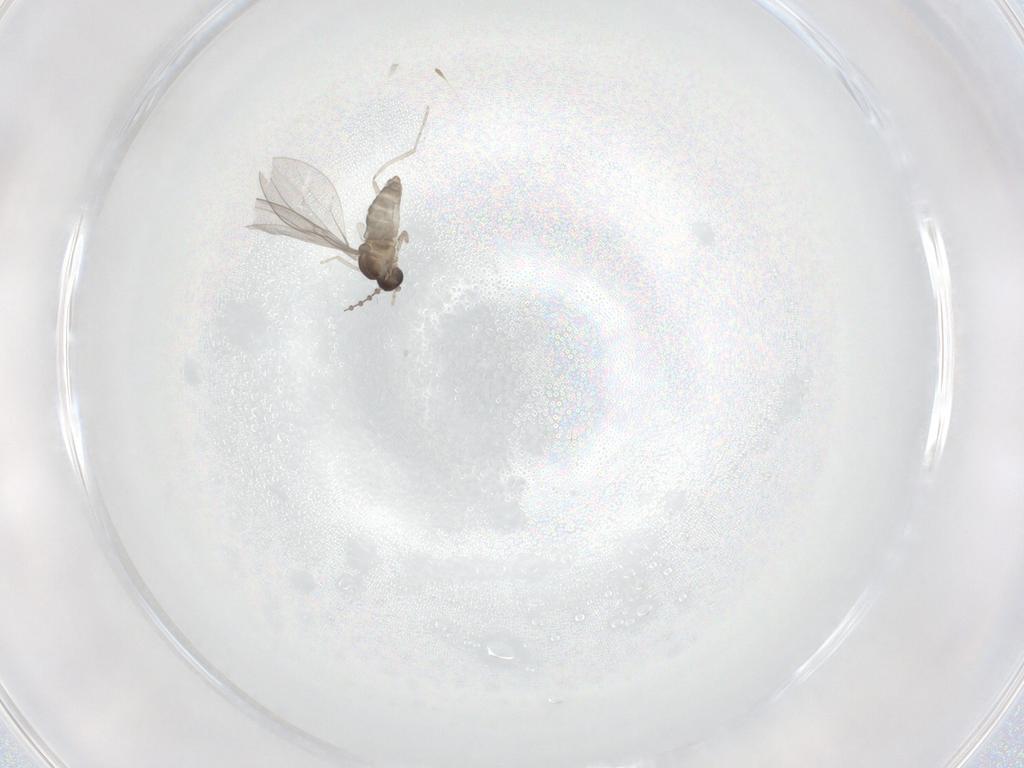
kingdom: Animalia
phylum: Arthropoda
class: Insecta
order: Diptera
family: Cecidomyiidae
